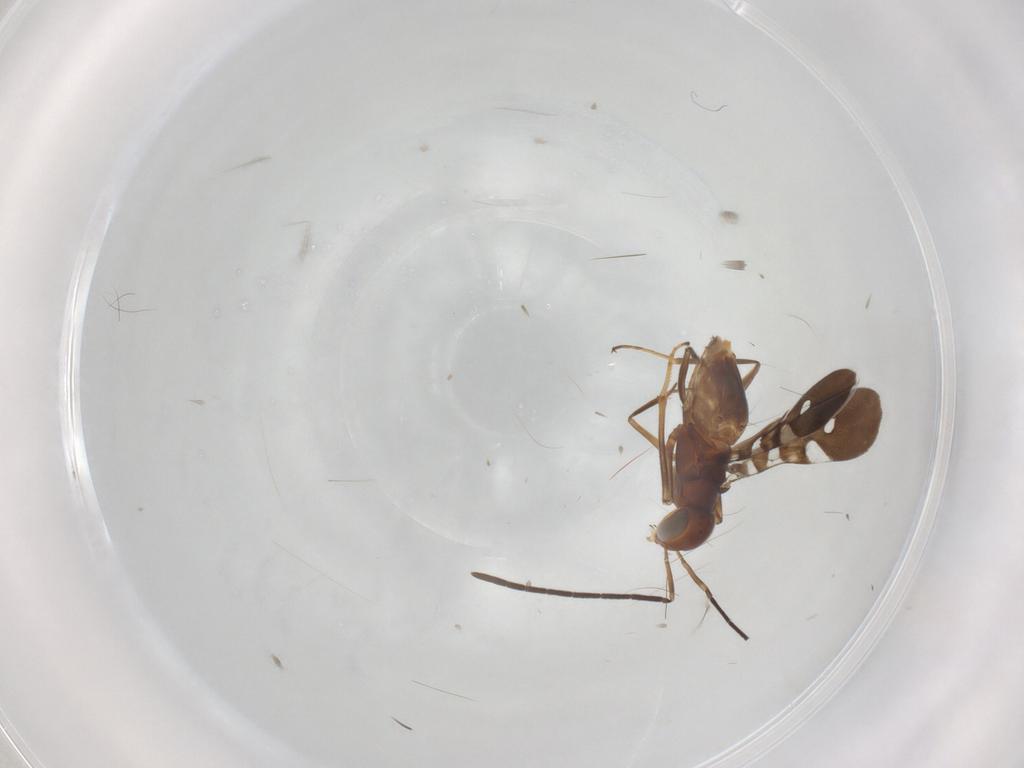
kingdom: Animalia
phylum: Arthropoda
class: Insecta
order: Hymenoptera
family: Encyrtidae
